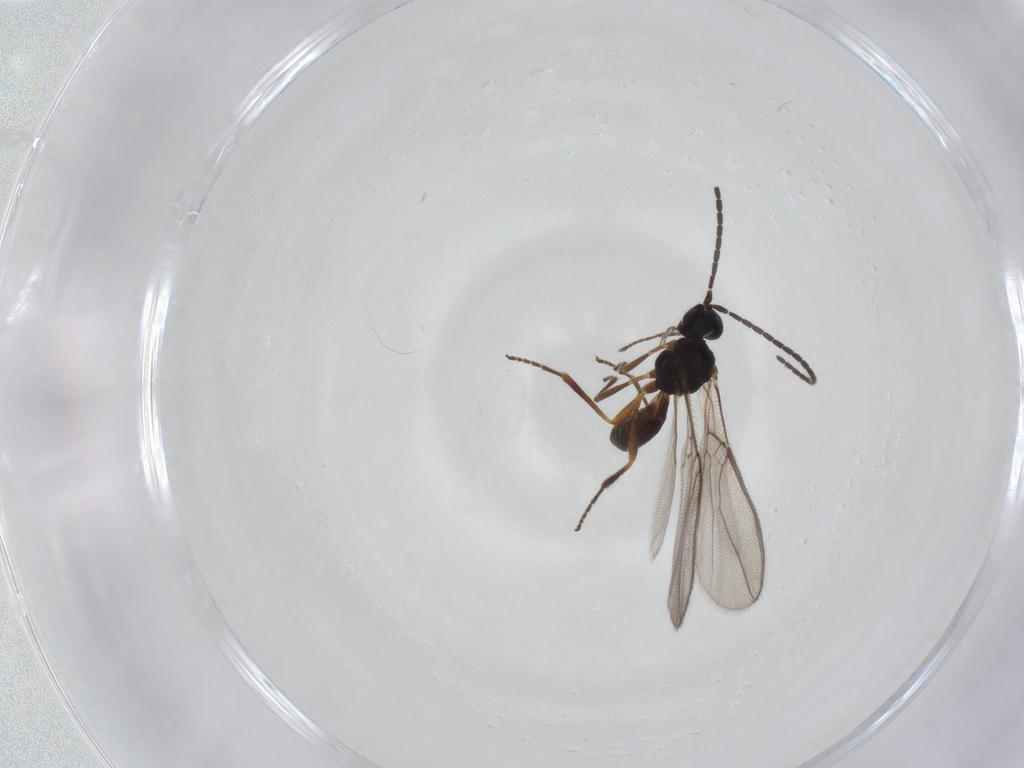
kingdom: Animalia
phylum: Arthropoda
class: Insecta
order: Hymenoptera
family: Braconidae
